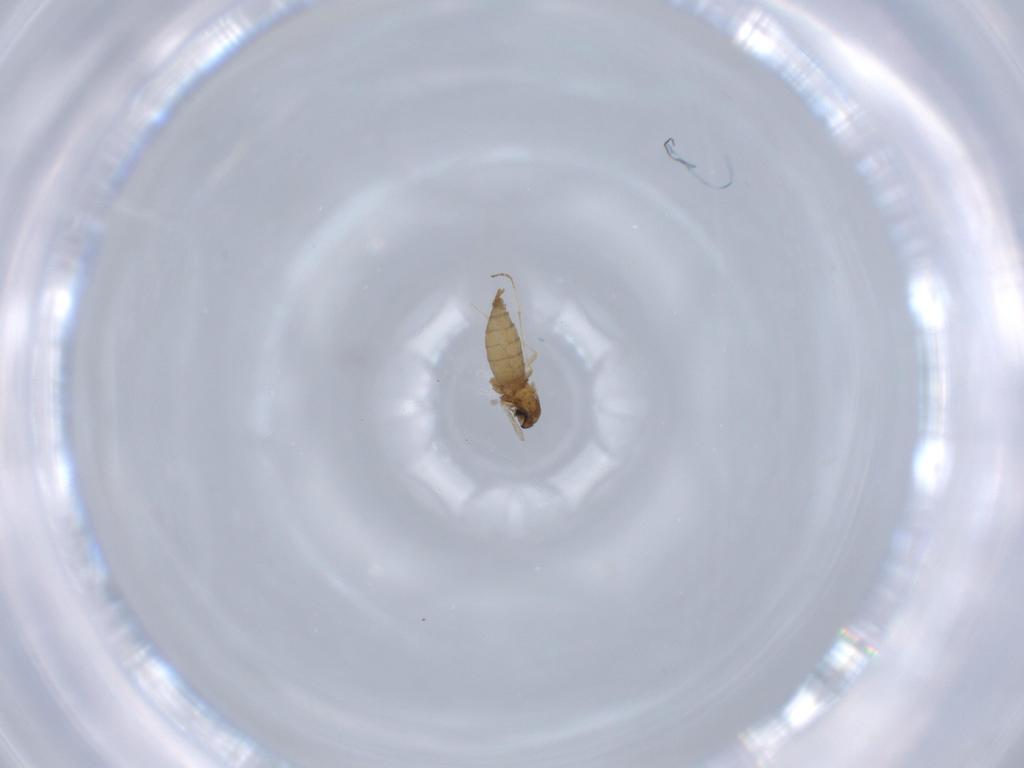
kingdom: Animalia
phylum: Arthropoda
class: Insecta
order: Diptera
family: Cecidomyiidae
